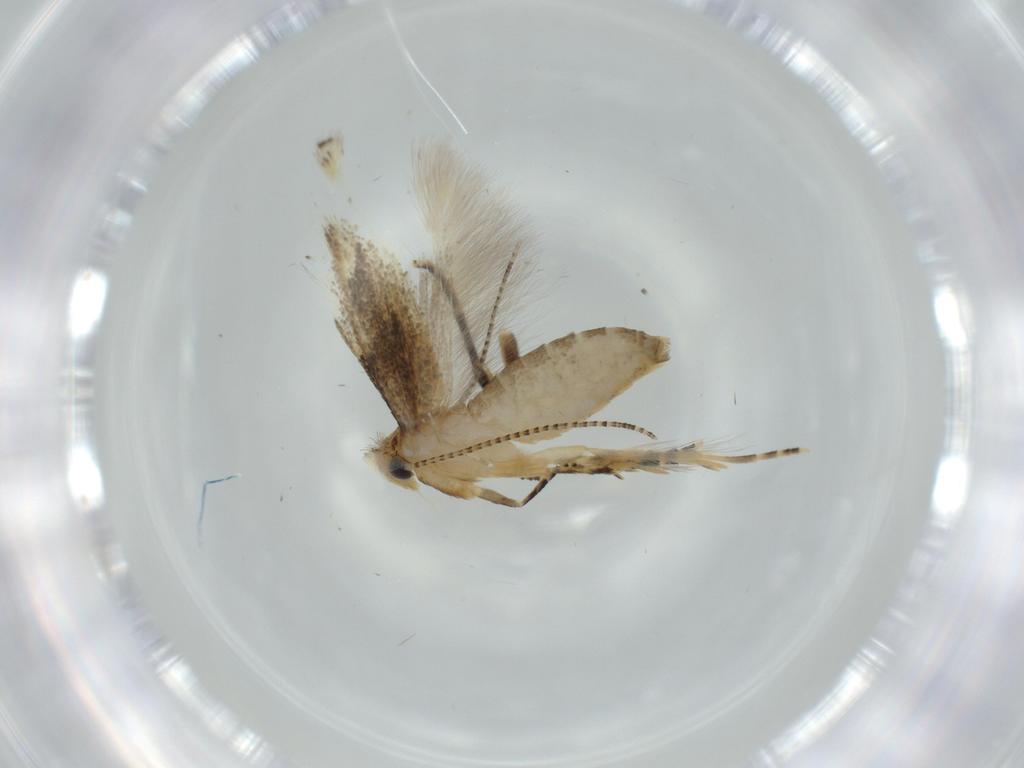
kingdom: Animalia
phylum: Arthropoda
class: Insecta
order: Lepidoptera
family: Bucculatricidae
